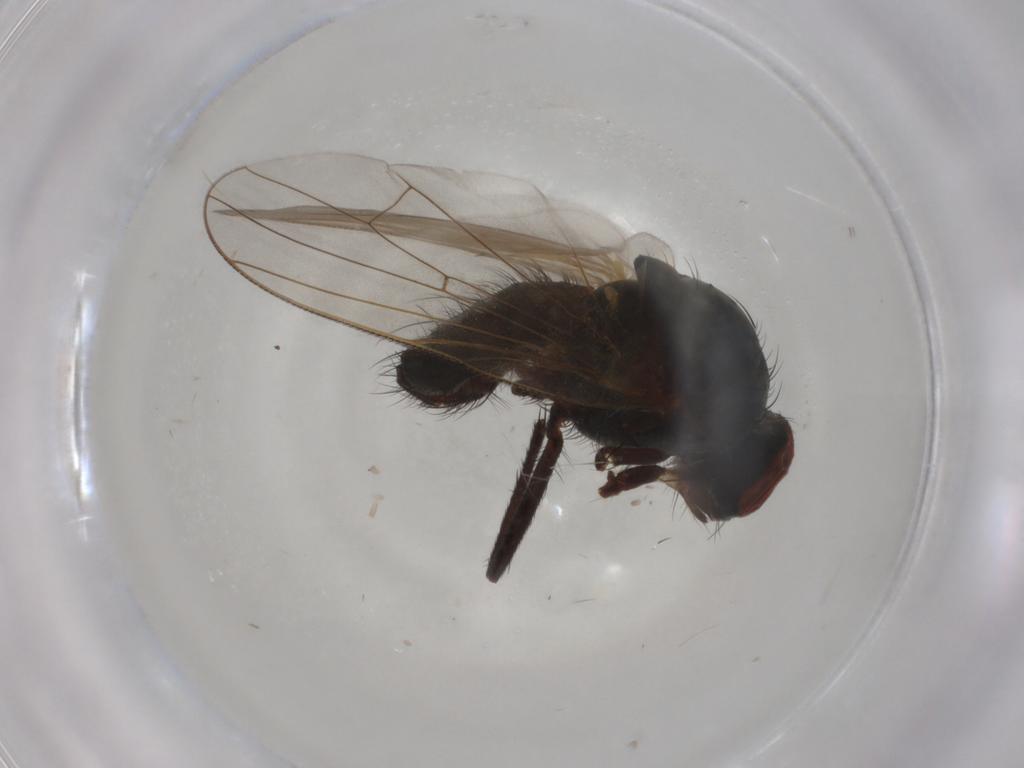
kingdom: Animalia
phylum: Arthropoda
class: Insecta
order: Diptera
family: Anthomyiidae
